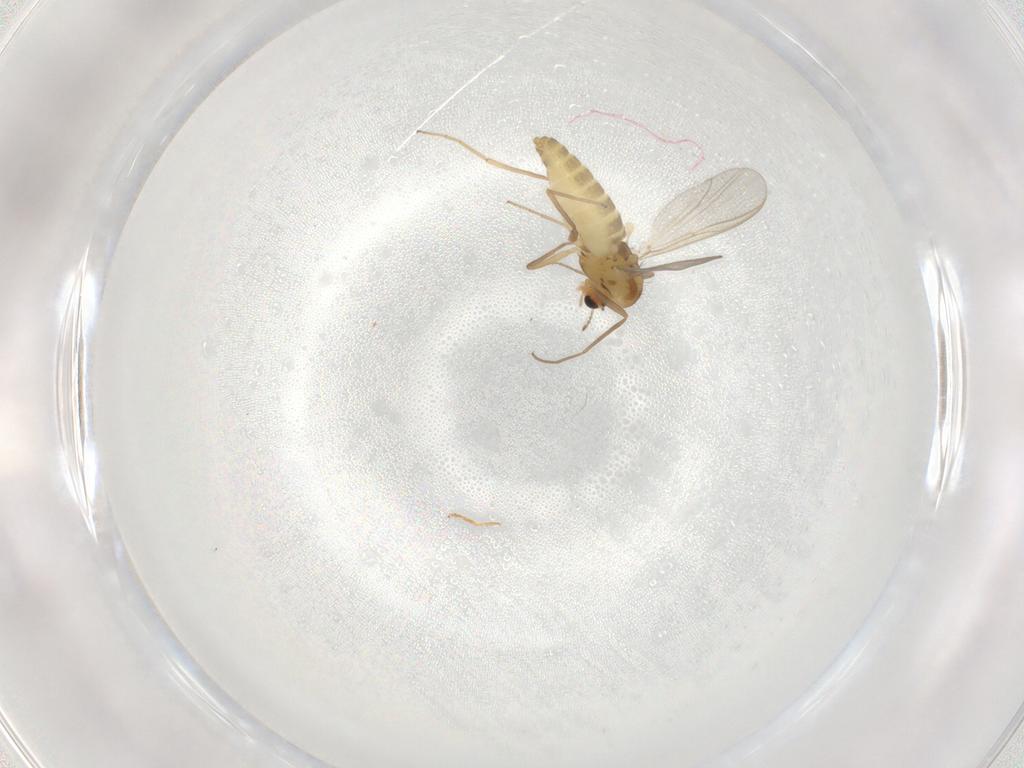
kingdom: Animalia
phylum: Arthropoda
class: Insecta
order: Diptera
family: Chironomidae
